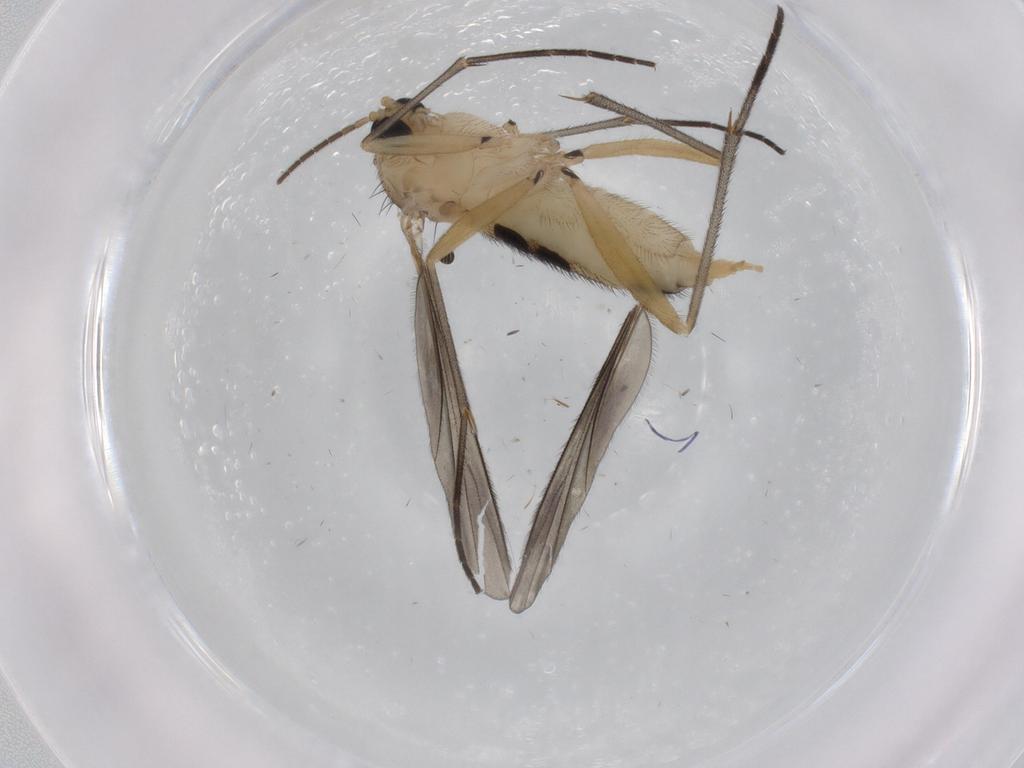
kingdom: Animalia
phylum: Arthropoda
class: Insecta
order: Diptera
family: Sciaridae
